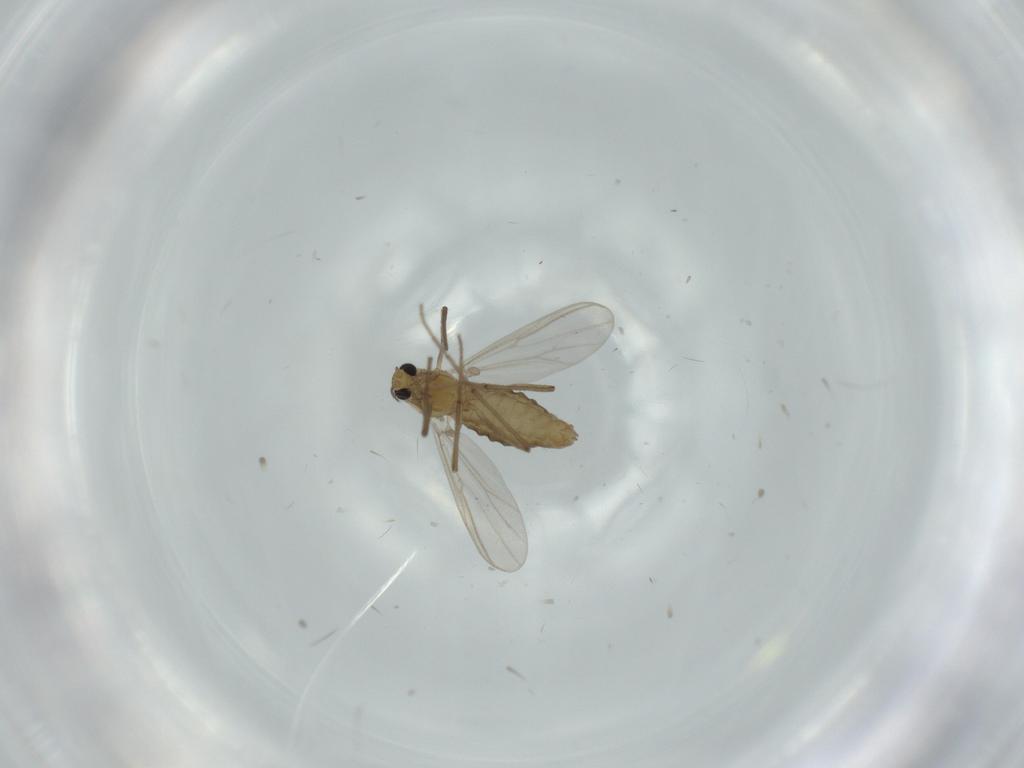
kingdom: Animalia
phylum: Arthropoda
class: Insecta
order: Diptera
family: Chironomidae
